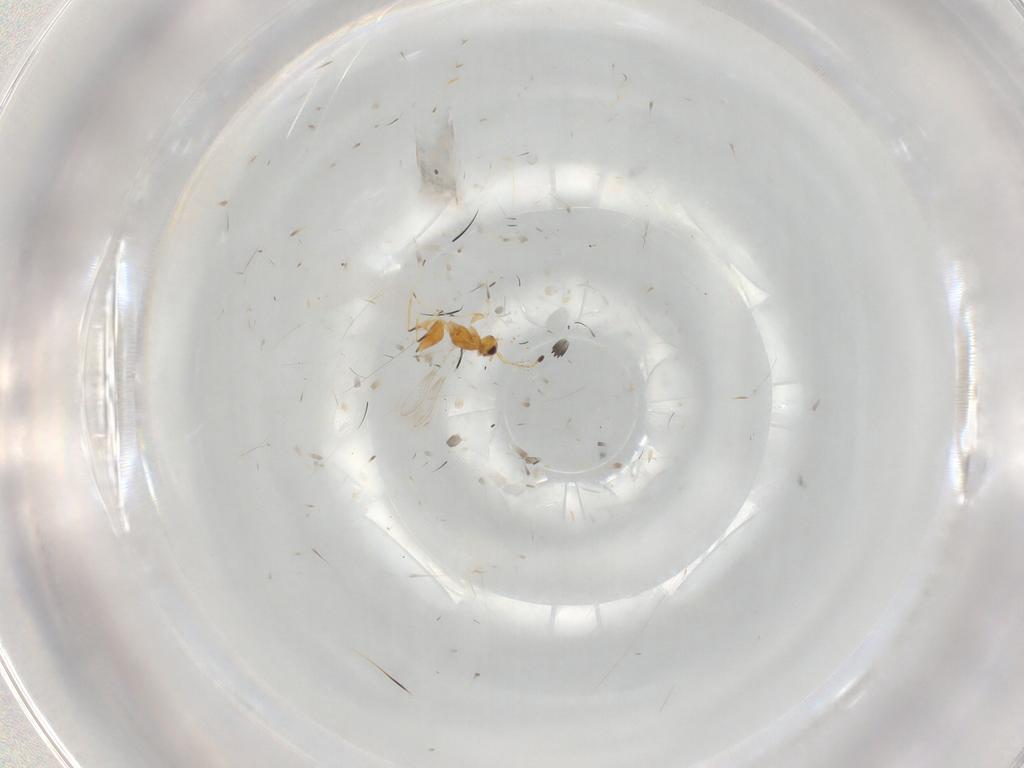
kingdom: Animalia
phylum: Arthropoda
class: Insecta
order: Hymenoptera
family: Mymaridae
